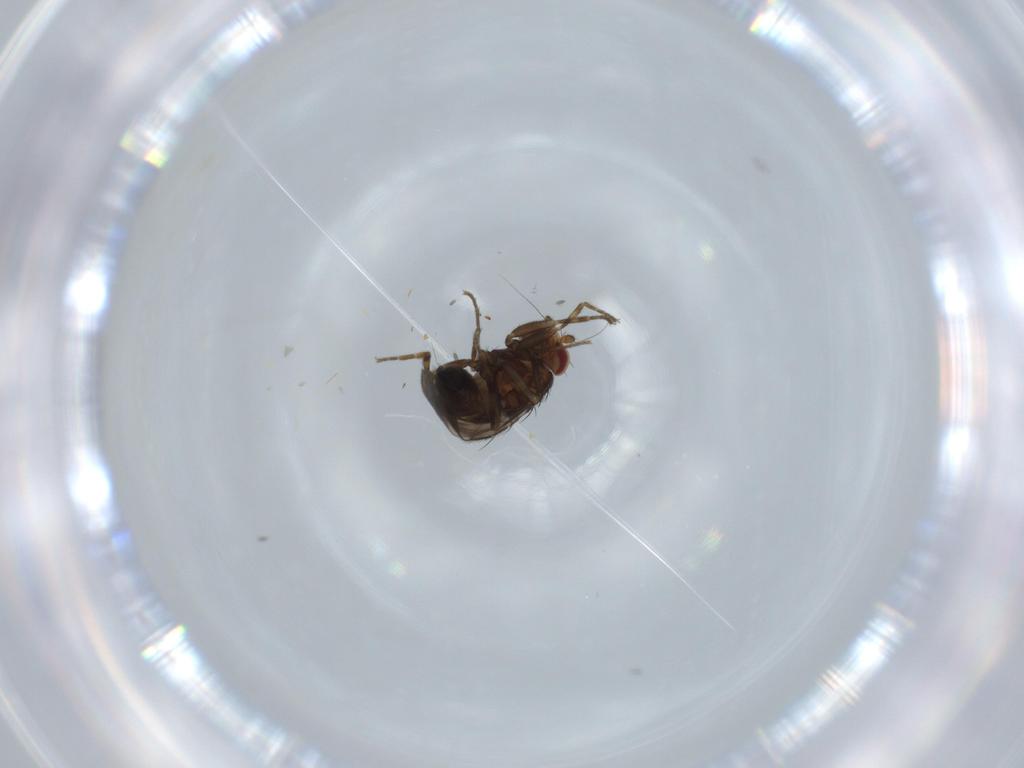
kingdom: Animalia
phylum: Arthropoda
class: Insecta
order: Diptera
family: Sphaeroceridae
